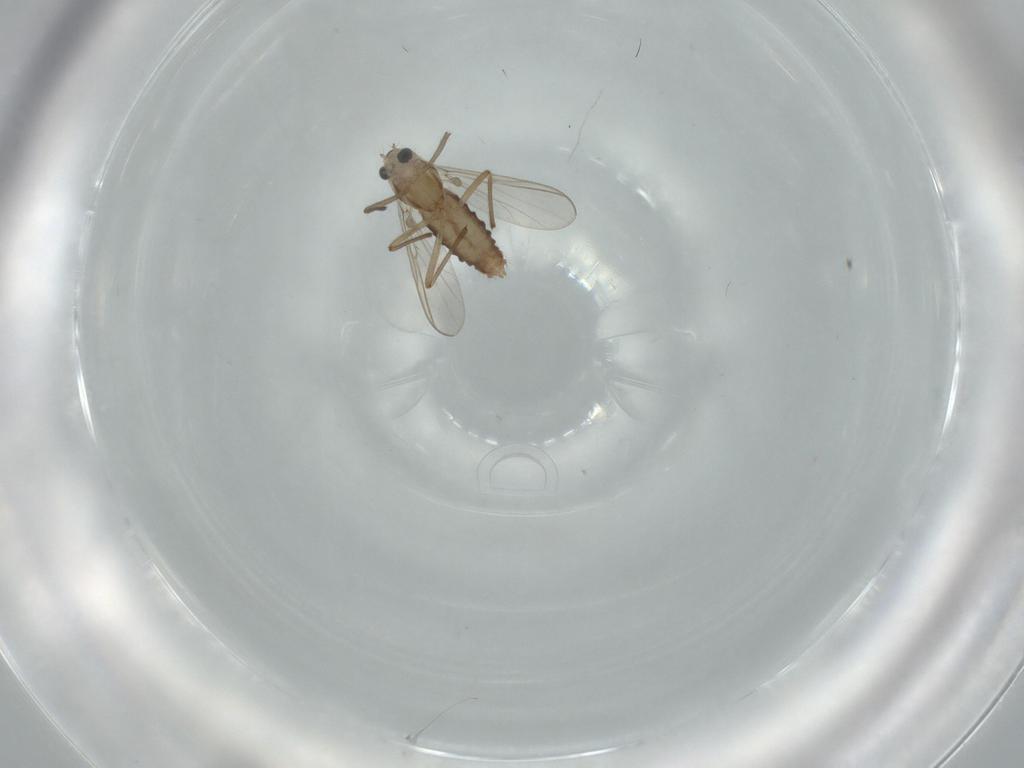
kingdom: Animalia
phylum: Arthropoda
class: Insecta
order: Diptera
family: Chironomidae
